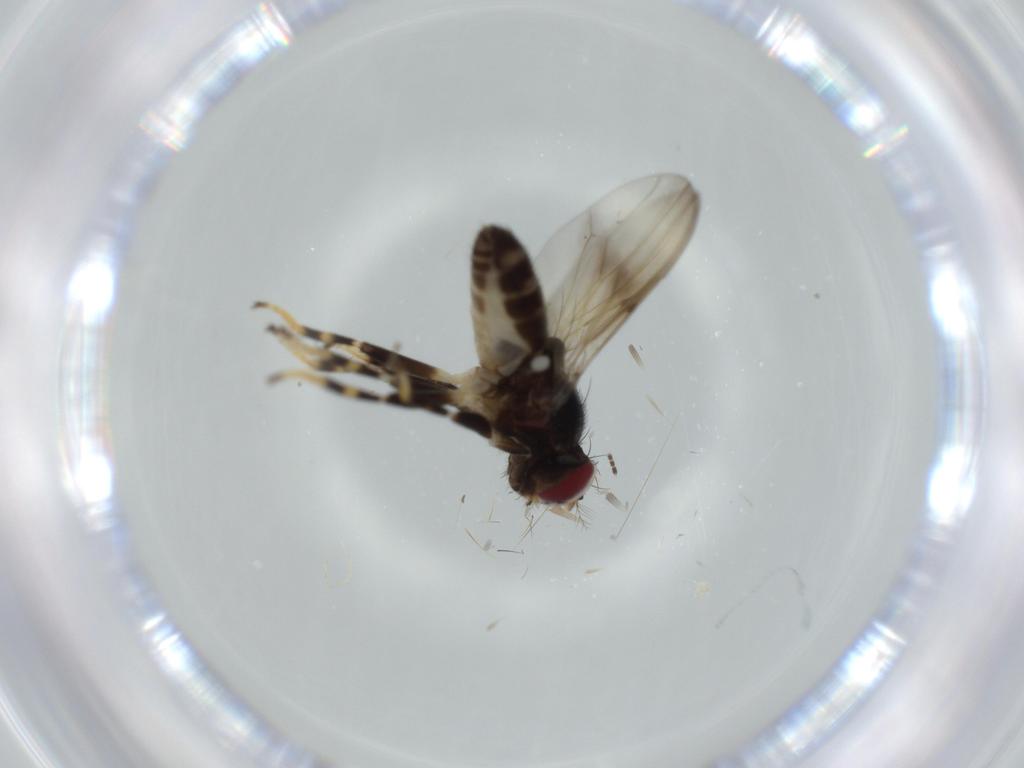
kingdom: Animalia
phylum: Arthropoda
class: Insecta
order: Diptera
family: Ephydridae
